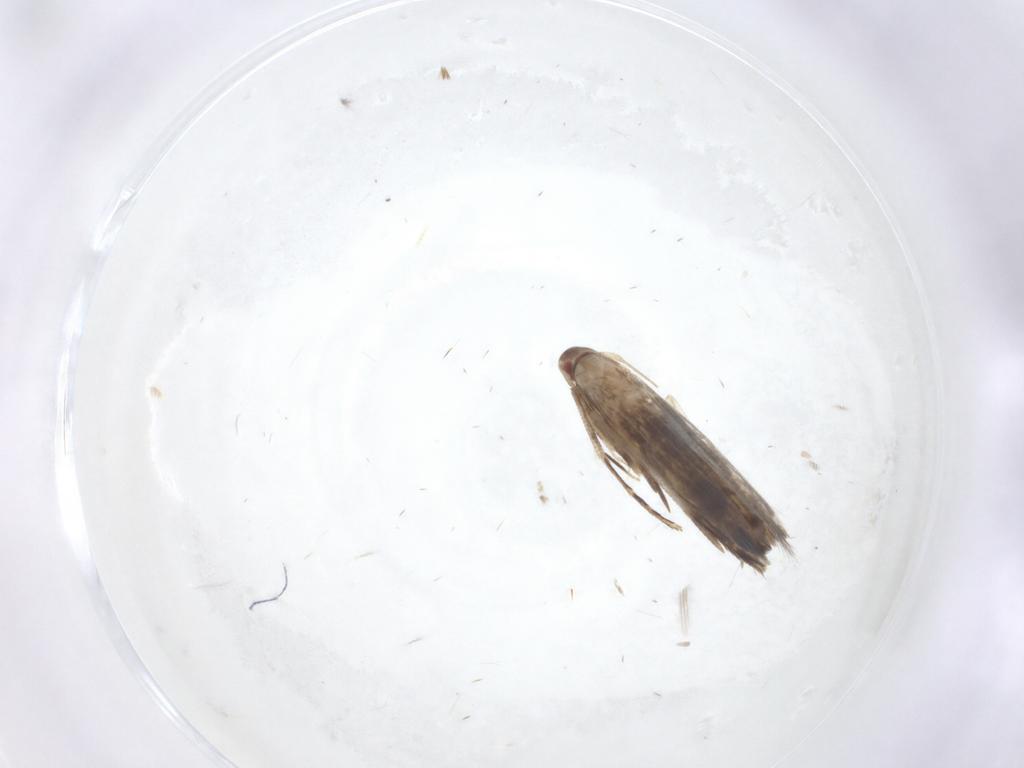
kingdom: Animalia
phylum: Arthropoda
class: Insecta
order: Lepidoptera
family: Cosmopterigidae
